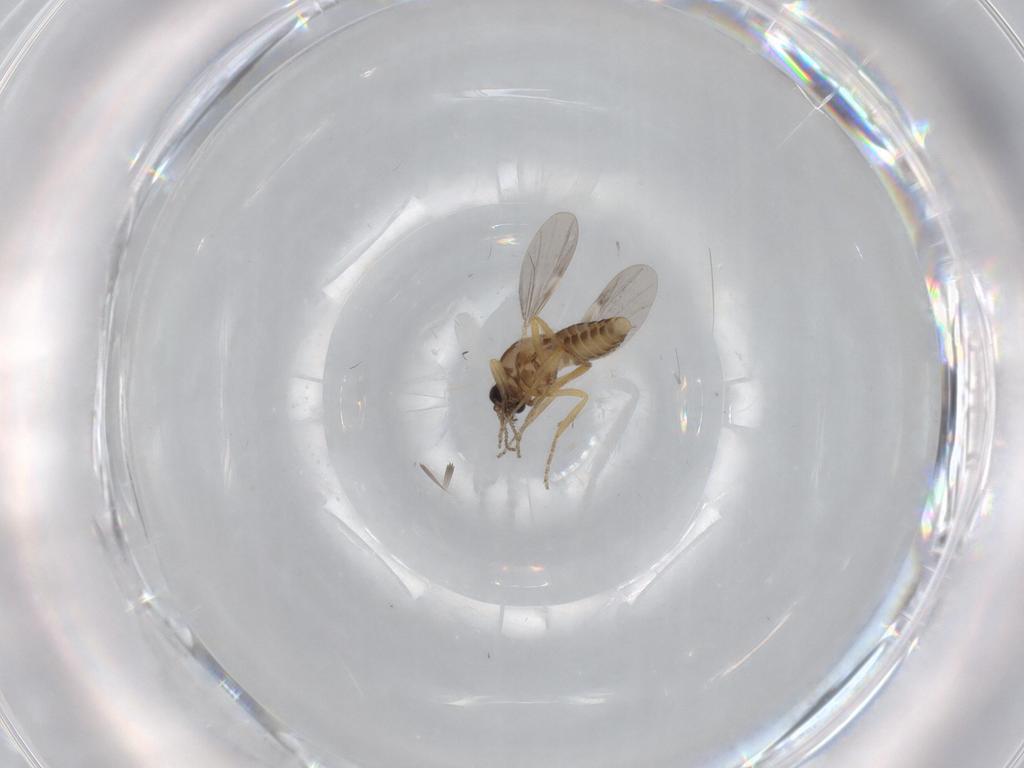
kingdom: Animalia
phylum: Arthropoda
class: Insecta
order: Diptera
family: Ceratopogonidae
